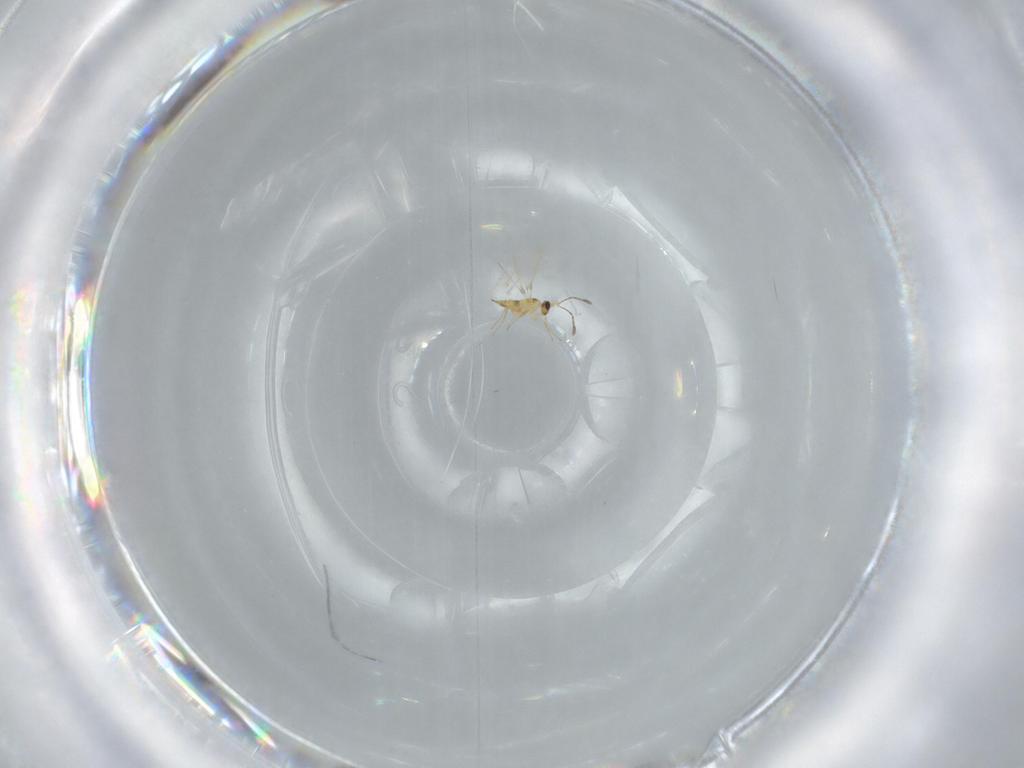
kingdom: Animalia
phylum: Arthropoda
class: Insecta
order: Hymenoptera
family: Mymaridae
